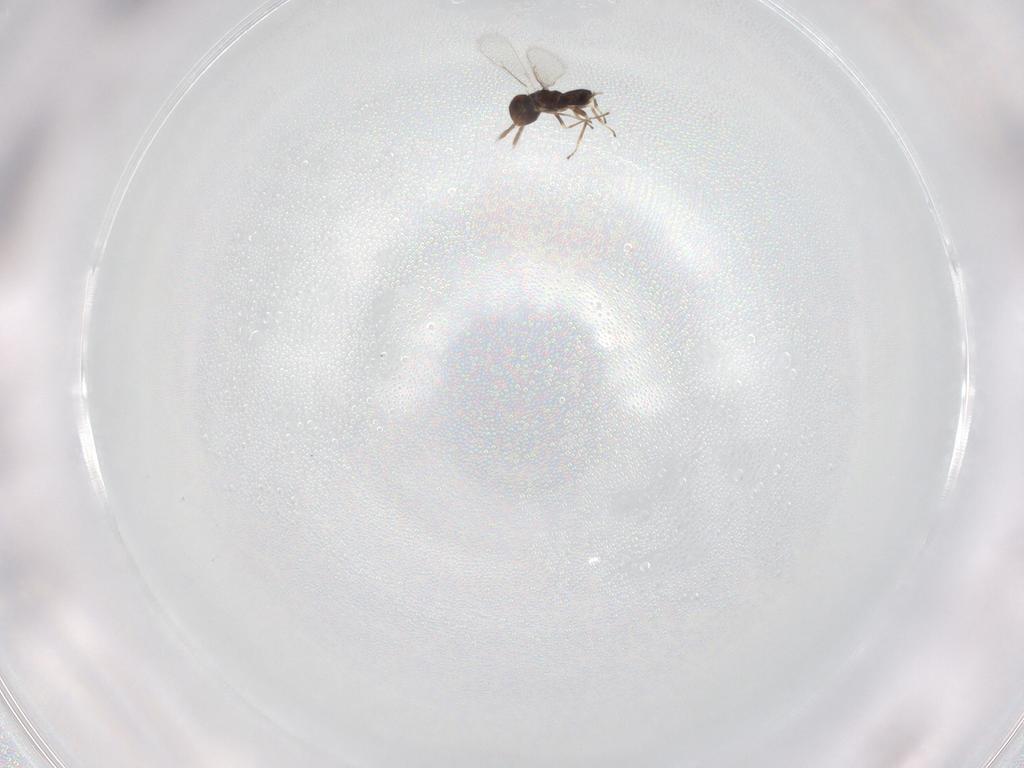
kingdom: Animalia
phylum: Arthropoda
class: Insecta
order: Hymenoptera
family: Eulophidae
